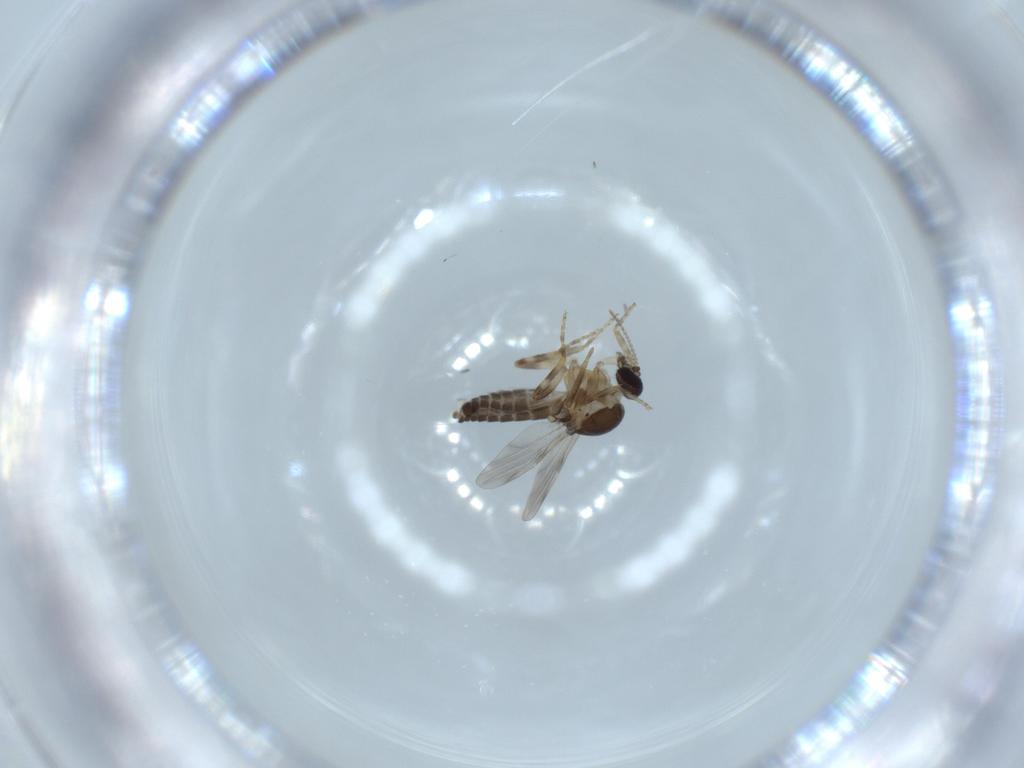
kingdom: Animalia
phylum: Arthropoda
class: Insecta
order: Diptera
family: Ceratopogonidae
